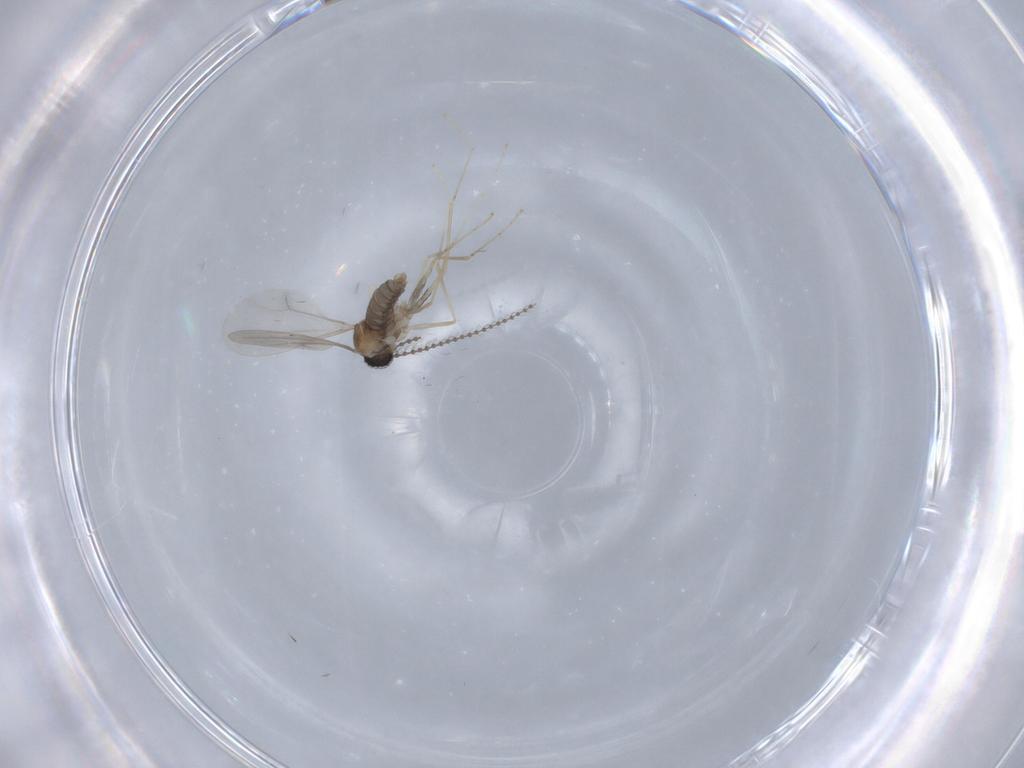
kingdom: Animalia
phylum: Arthropoda
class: Insecta
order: Diptera
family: Cecidomyiidae
